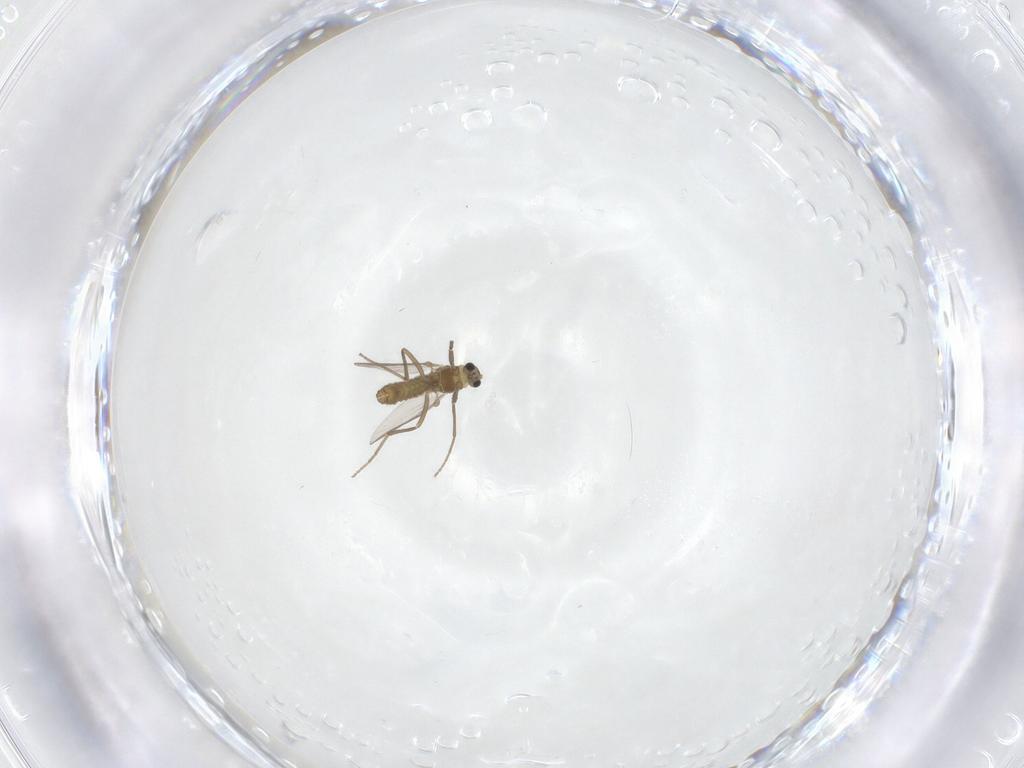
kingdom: Animalia
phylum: Arthropoda
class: Insecta
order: Diptera
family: Chironomidae
